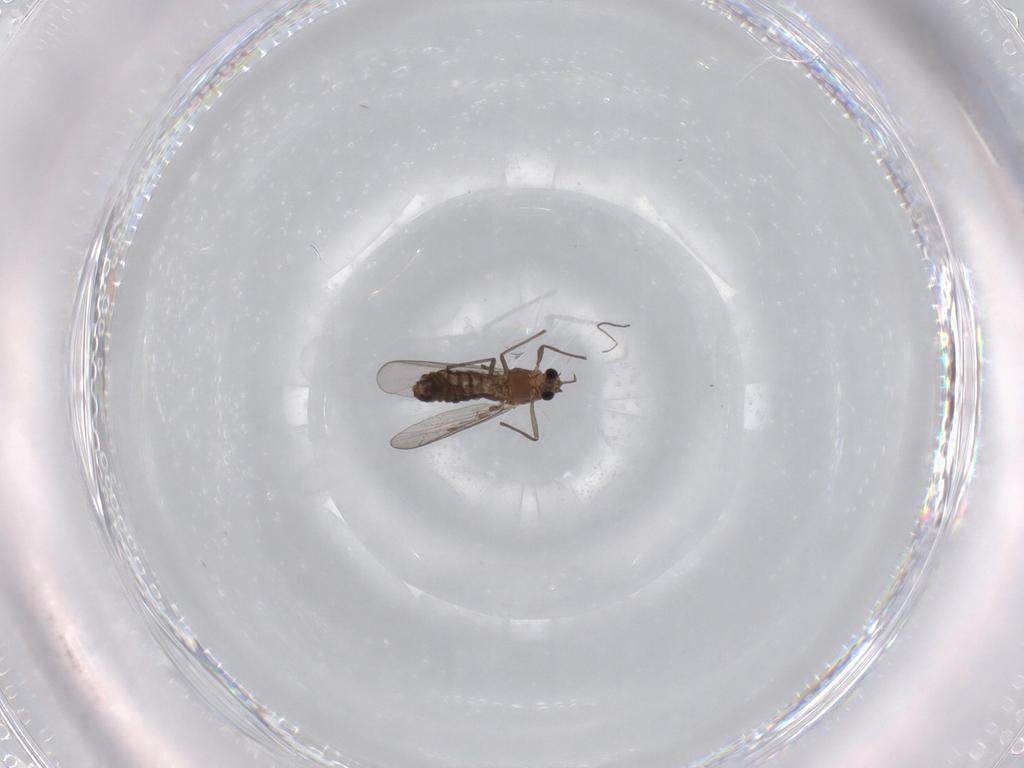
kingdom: Animalia
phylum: Arthropoda
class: Insecta
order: Diptera
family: Chironomidae
